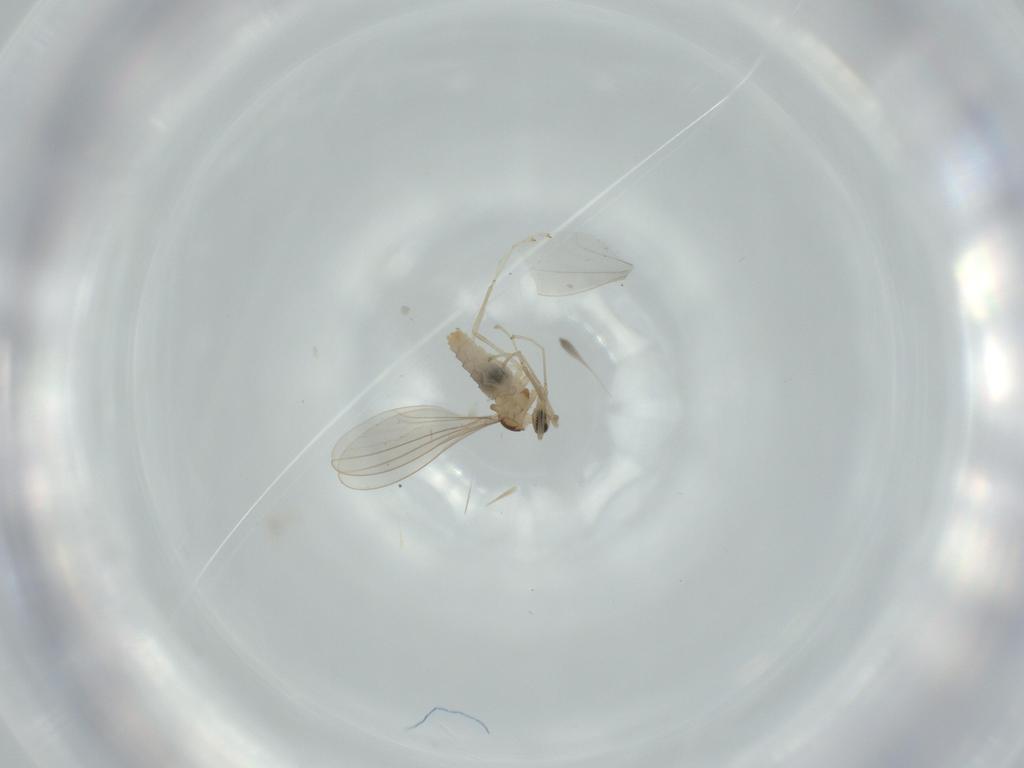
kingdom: Animalia
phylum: Arthropoda
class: Insecta
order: Diptera
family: Cecidomyiidae
